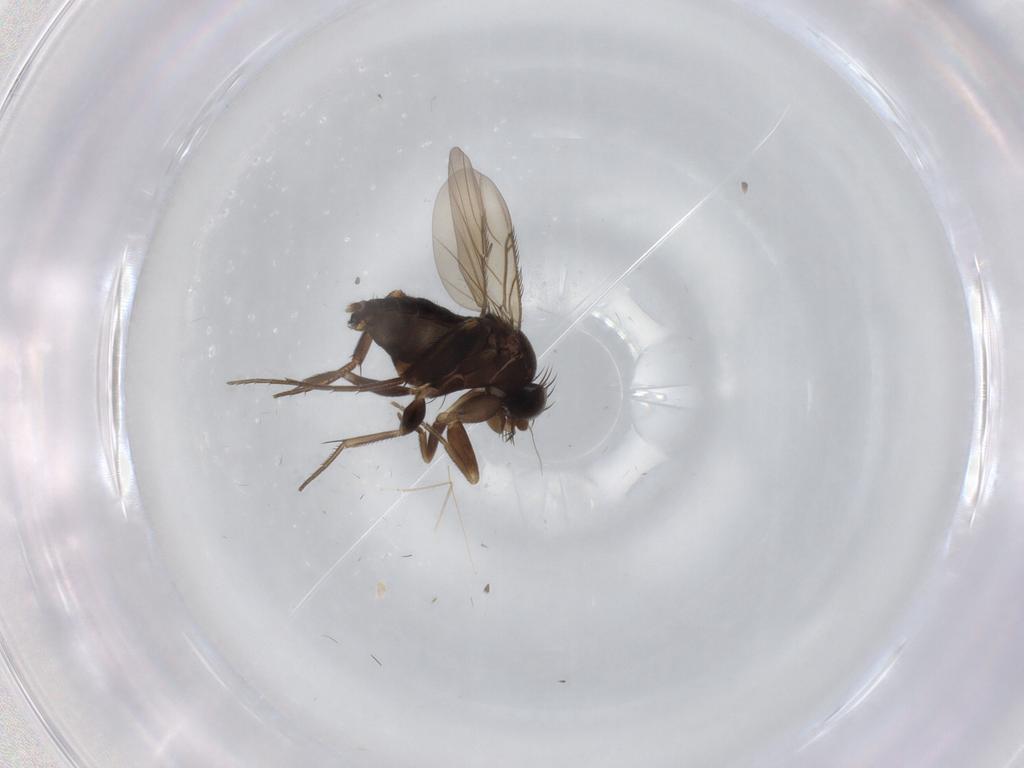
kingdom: Animalia
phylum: Arthropoda
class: Insecta
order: Diptera
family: Phoridae
